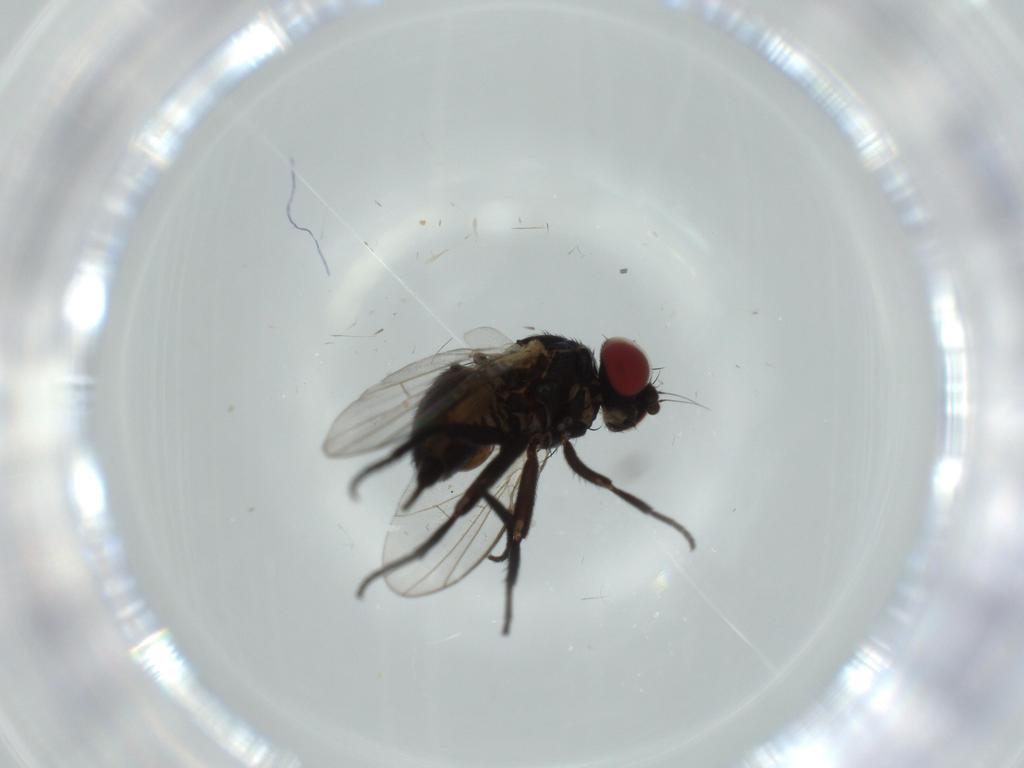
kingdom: Animalia
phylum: Arthropoda
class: Insecta
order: Diptera
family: Agromyzidae
